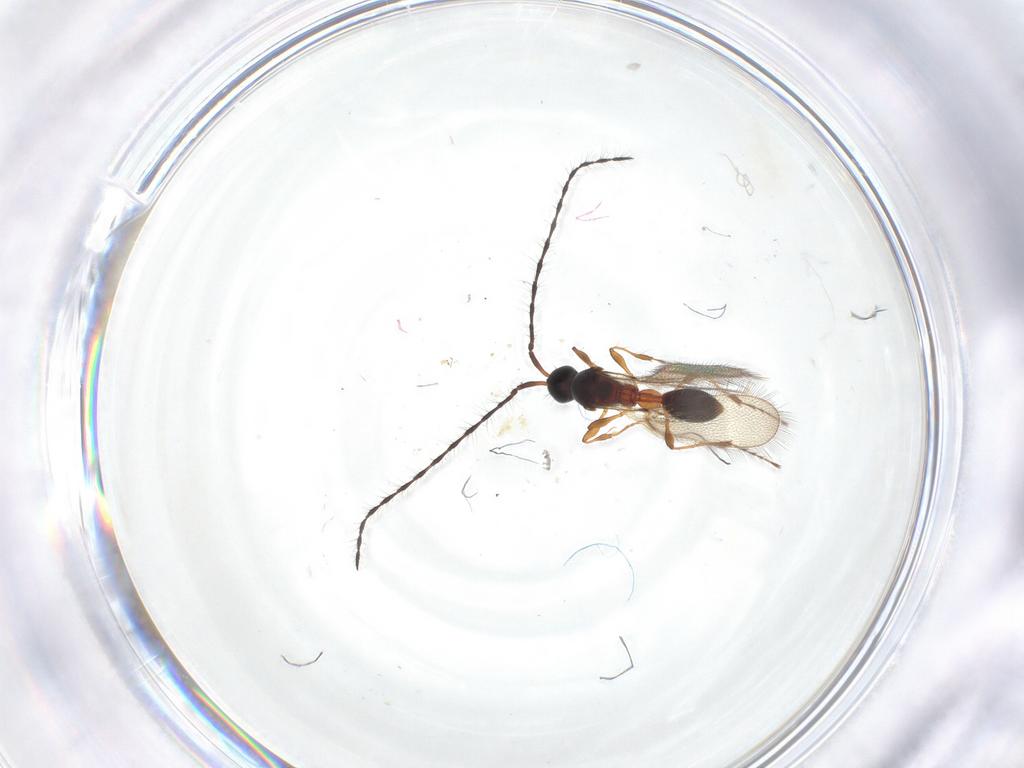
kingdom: Animalia
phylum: Arthropoda
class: Insecta
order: Hymenoptera
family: Diapriidae
